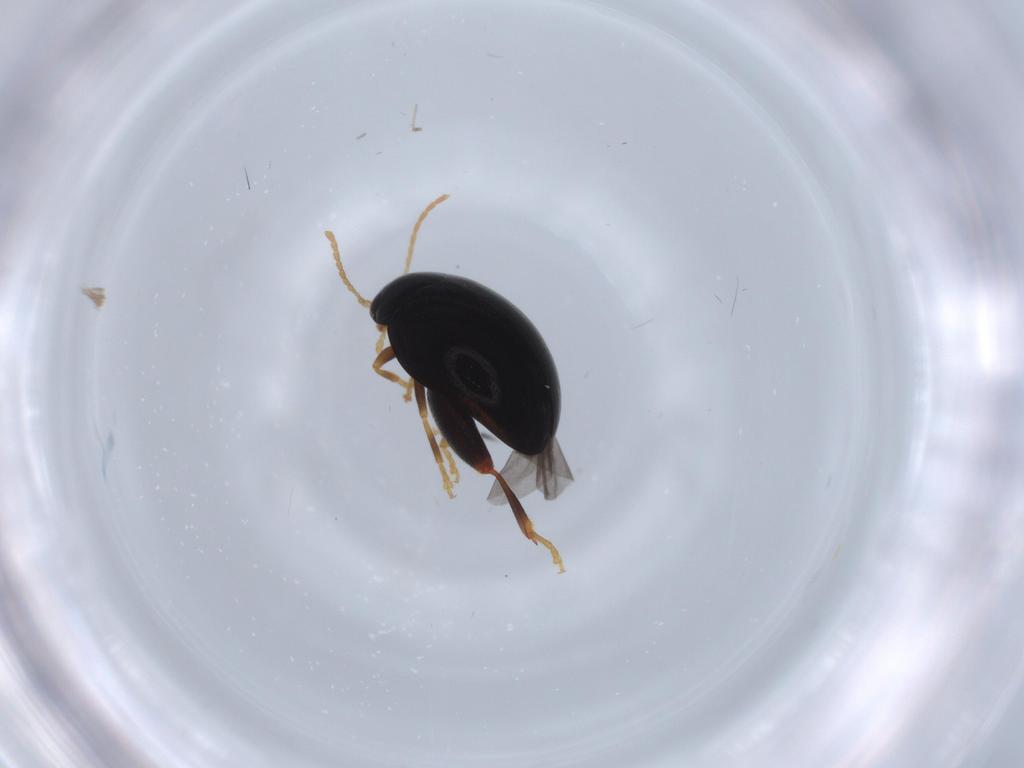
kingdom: Animalia
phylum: Arthropoda
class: Insecta
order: Coleoptera
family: Chrysomelidae
